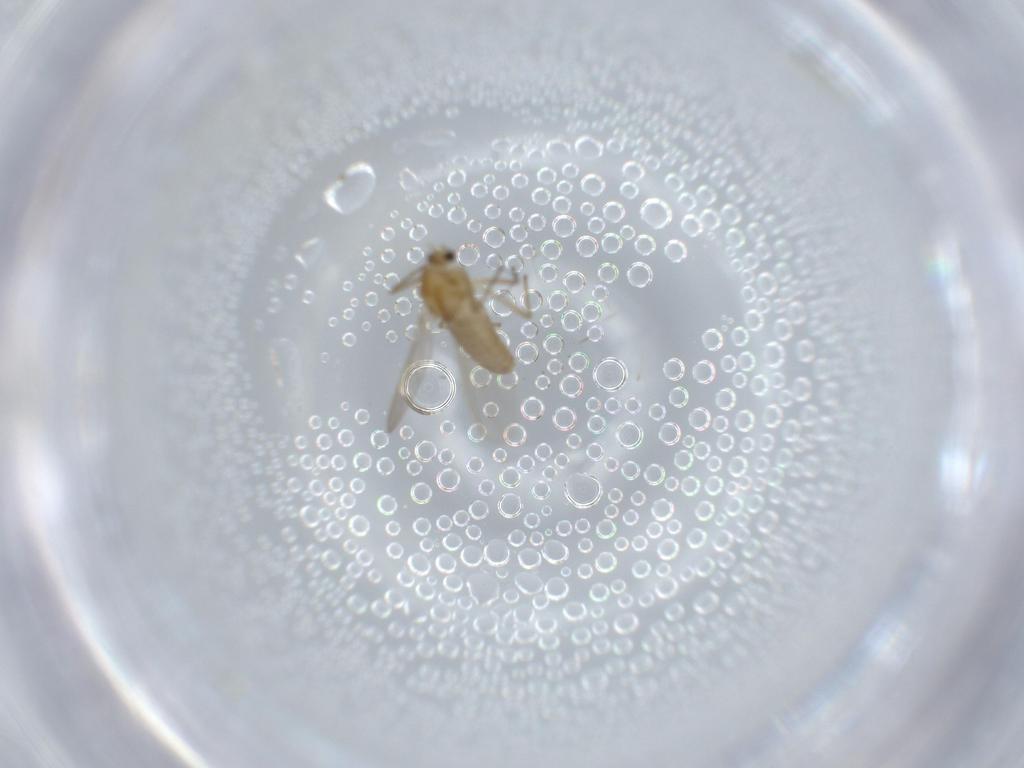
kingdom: Animalia
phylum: Arthropoda
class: Insecta
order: Diptera
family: Chironomidae
